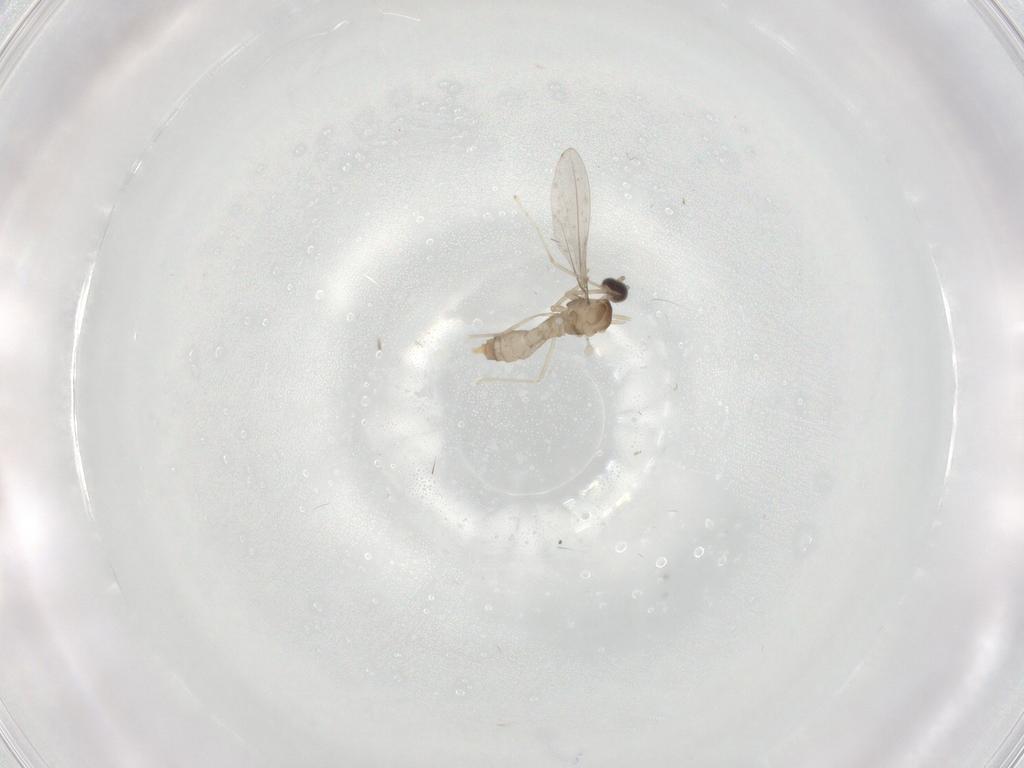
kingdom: Animalia
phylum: Arthropoda
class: Insecta
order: Diptera
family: Cecidomyiidae
